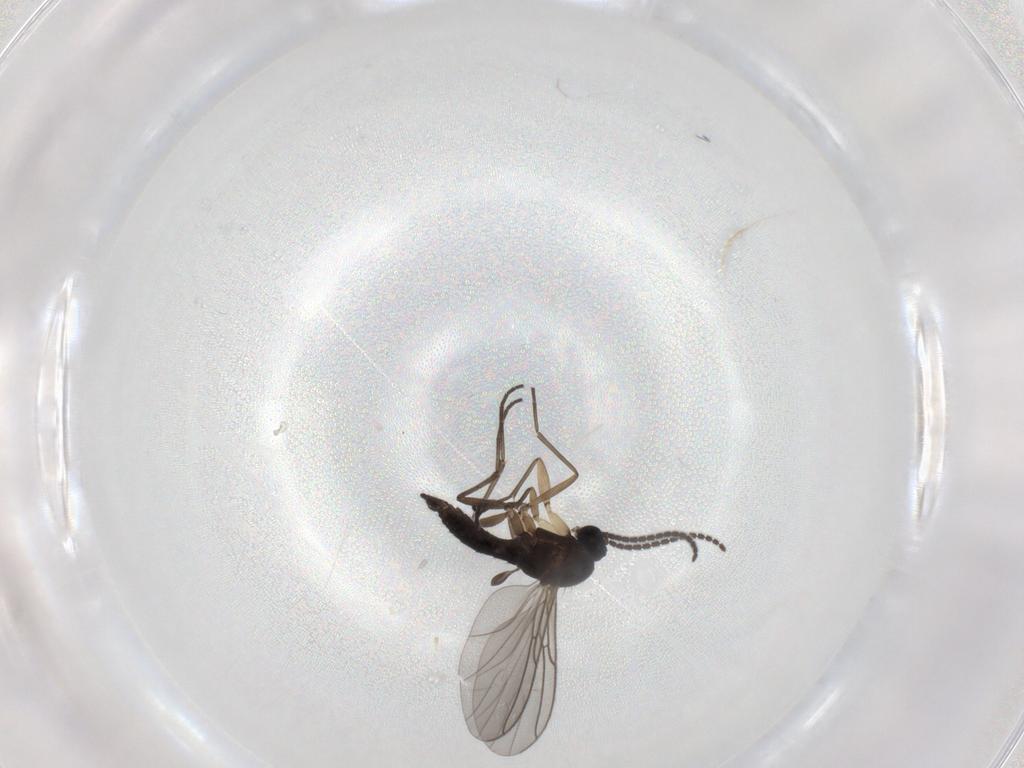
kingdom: Animalia
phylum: Arthropoda
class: Insecta
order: Diptera
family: Sciaridae
